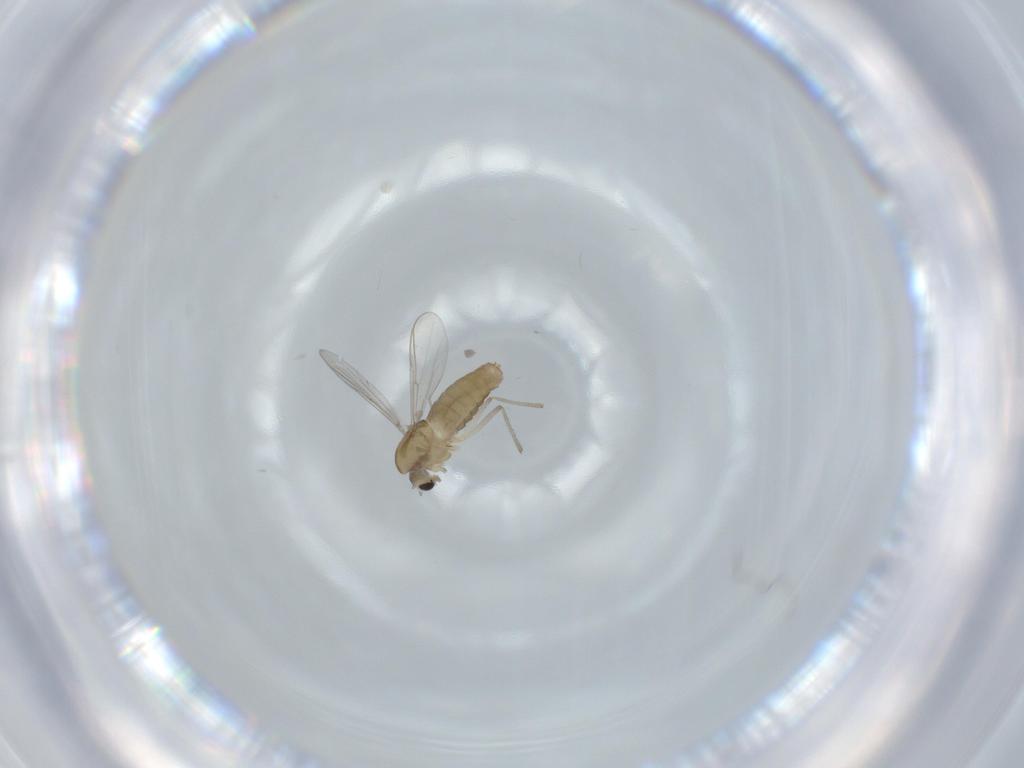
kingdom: Animalia
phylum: Arthropoda
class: Insecta
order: Diptera
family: Chironomidae
